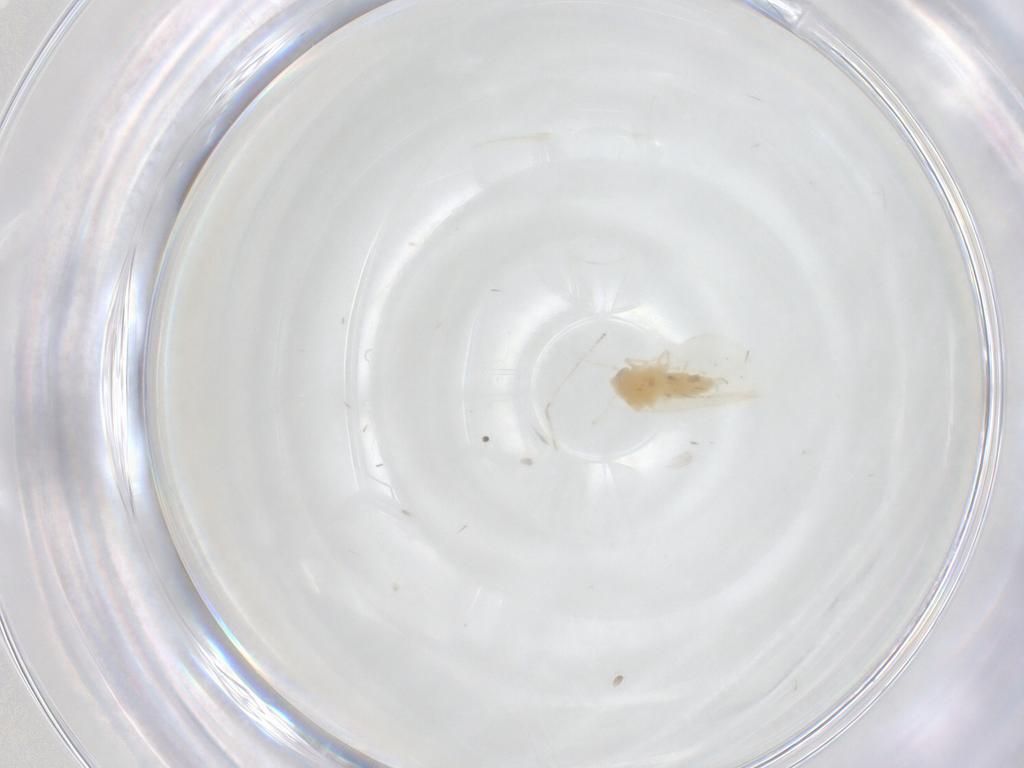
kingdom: Animalia
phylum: Arthropoda
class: Insecta
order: Hemiptera
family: Aleyrodidae
